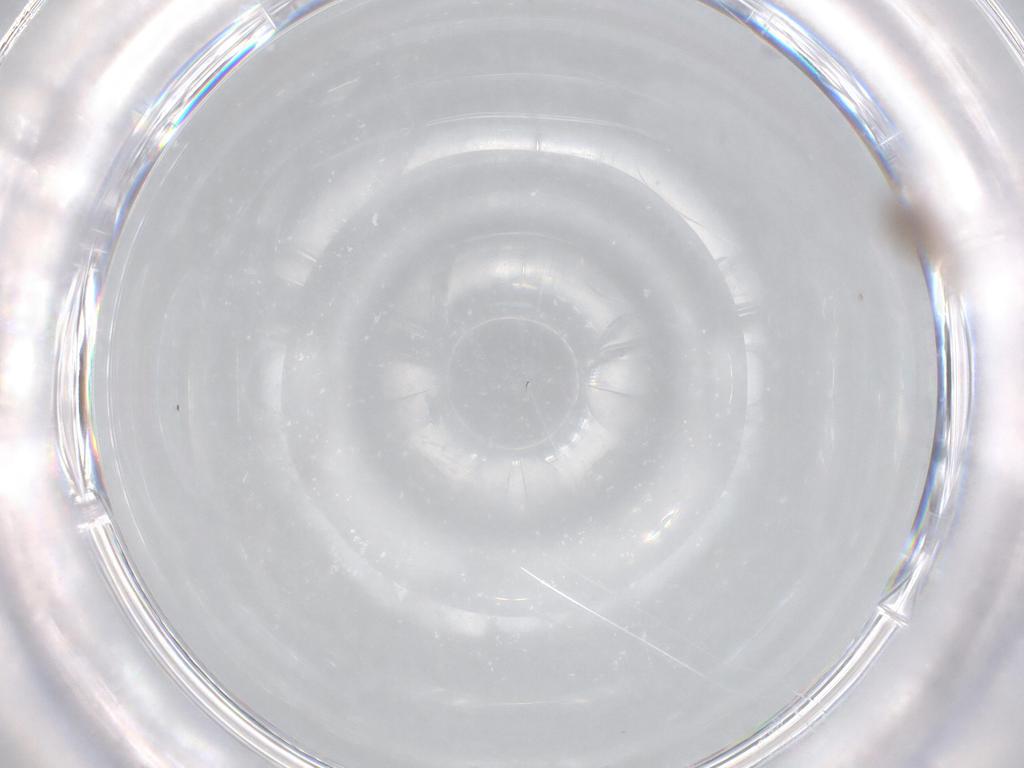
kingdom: Animalia
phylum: Arthropoda
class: Insecta
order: Diptera
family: Cecidomyiidae
